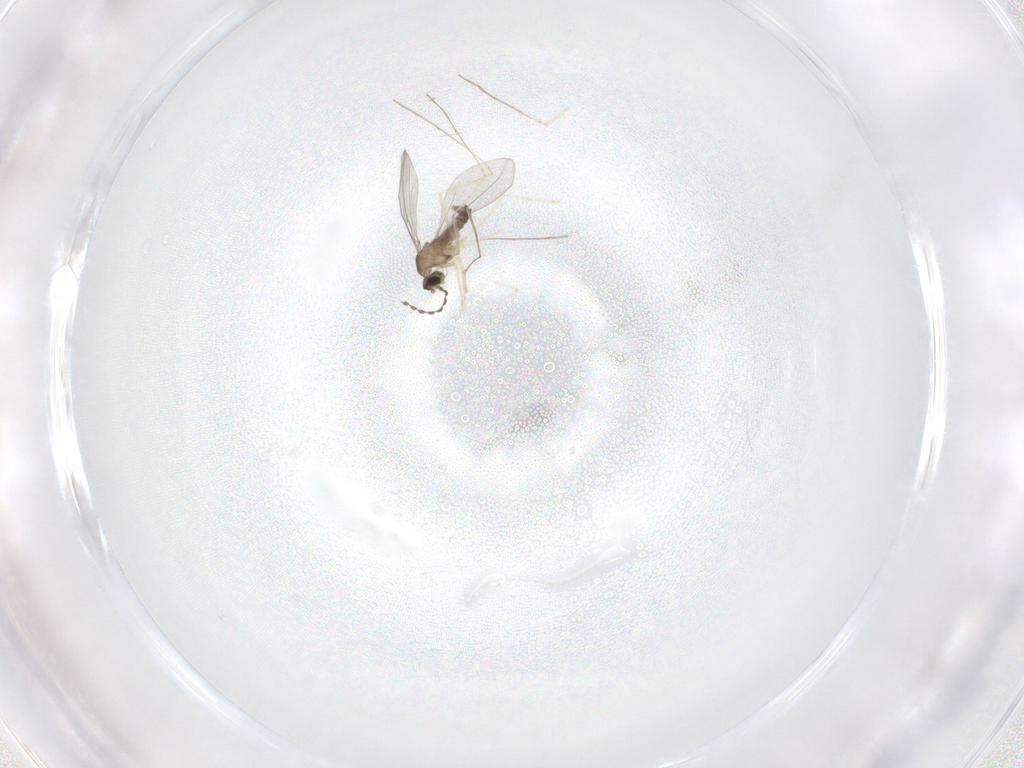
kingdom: Animalia
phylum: Arthropoda
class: Insecta
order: Diptera
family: Cecidomyiidae
